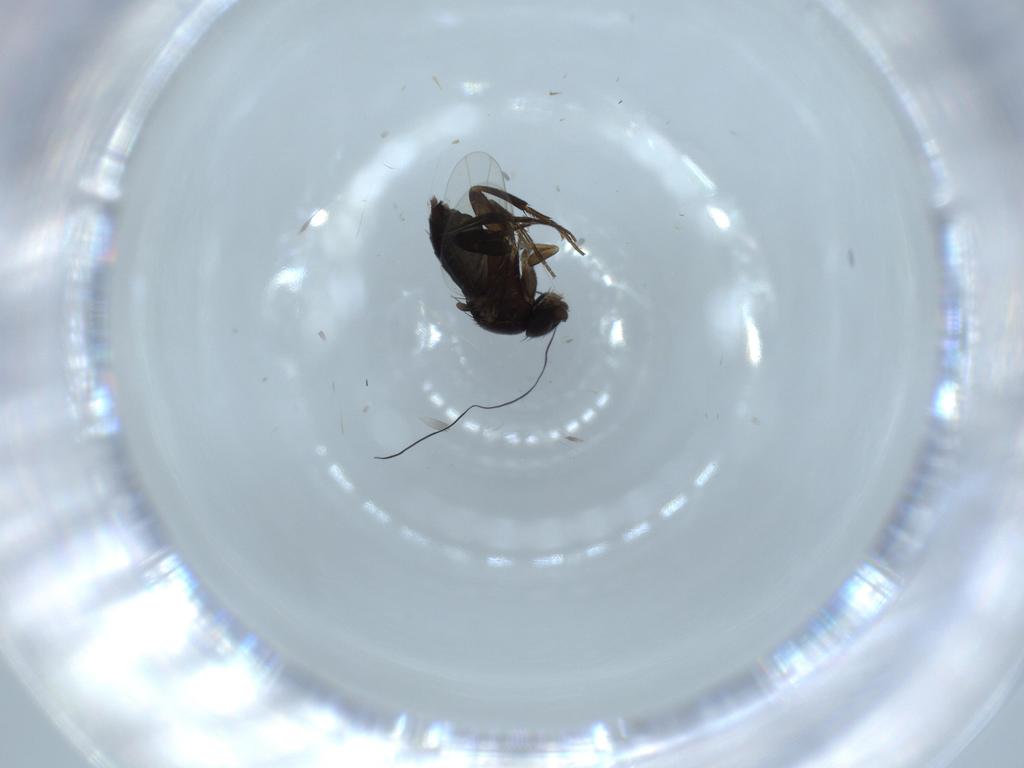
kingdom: Animalia
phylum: Arthropoda
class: Insecta
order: Diptera
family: Phoridae
